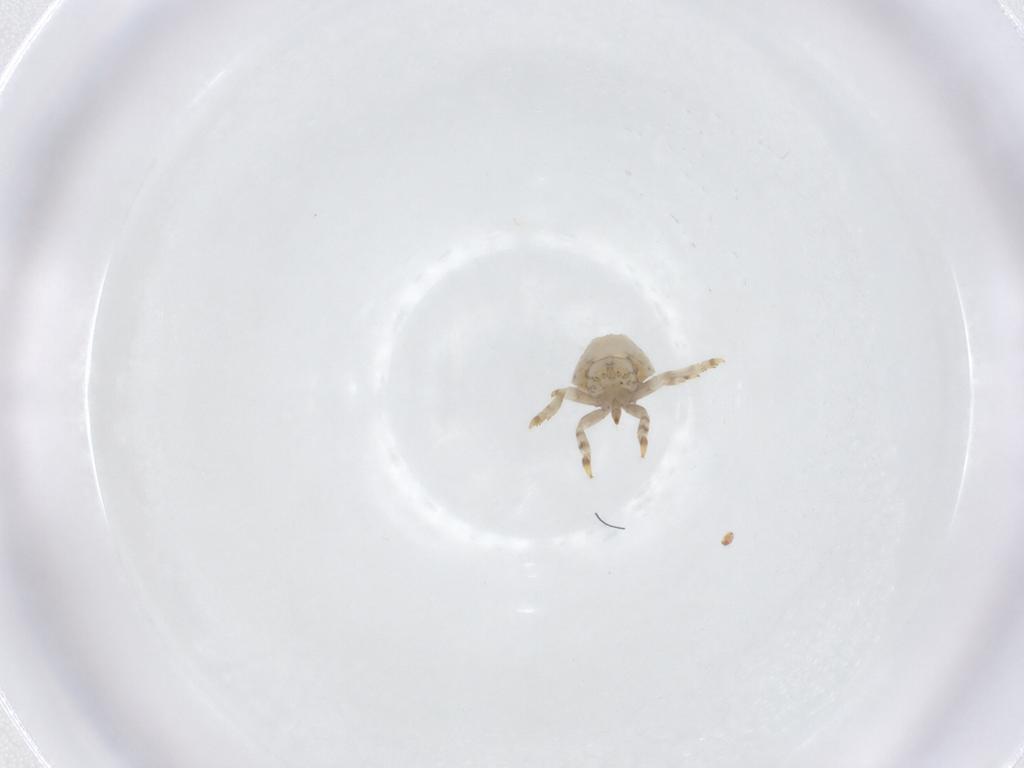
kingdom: Animalia
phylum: Arthropoda
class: Insecta
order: Hemiptera
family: Acanaloniidae
